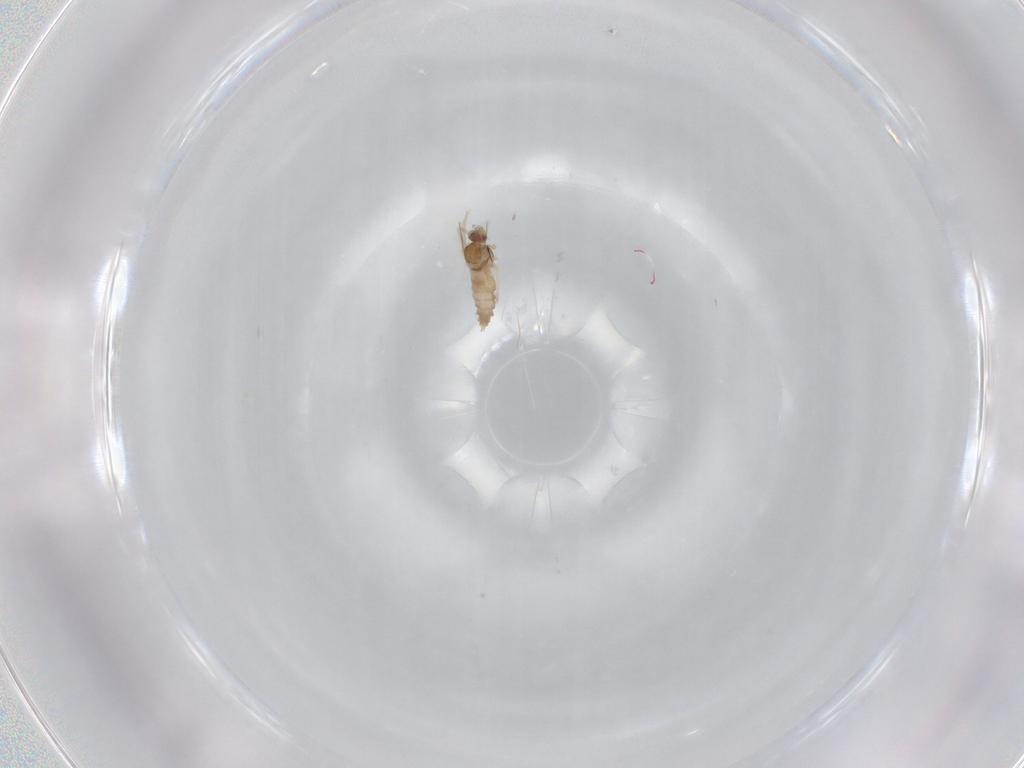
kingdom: Animalia
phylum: Arthropoda
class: Insecta
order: Diptera
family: Cecidomyiidae
